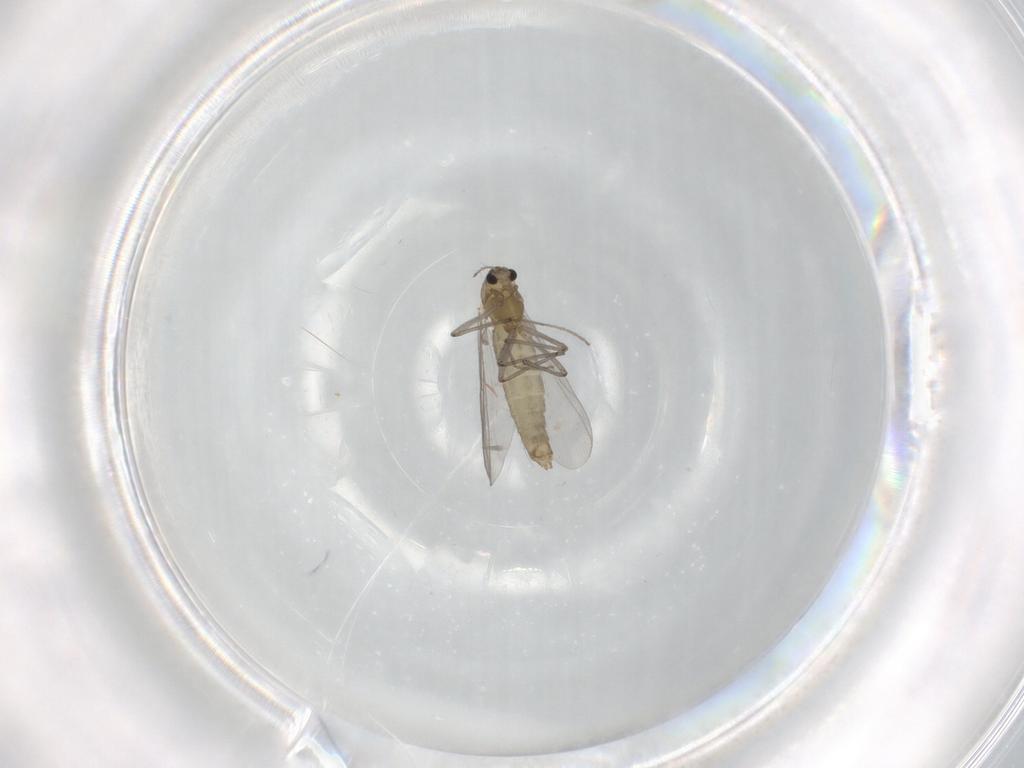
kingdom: Animalia
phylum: Arthropoda
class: Insecta
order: Diptera
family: Chironomidae
